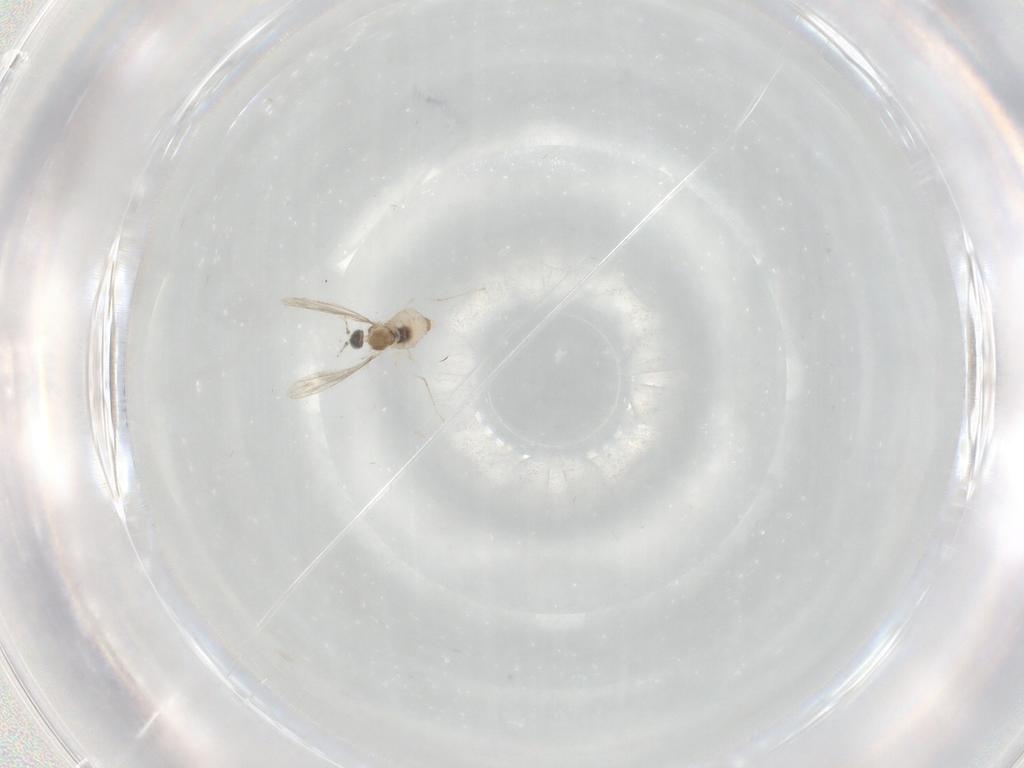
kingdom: Animalia
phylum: Arthropoda
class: Insecta
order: Diptera
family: Cecidomyiidae
